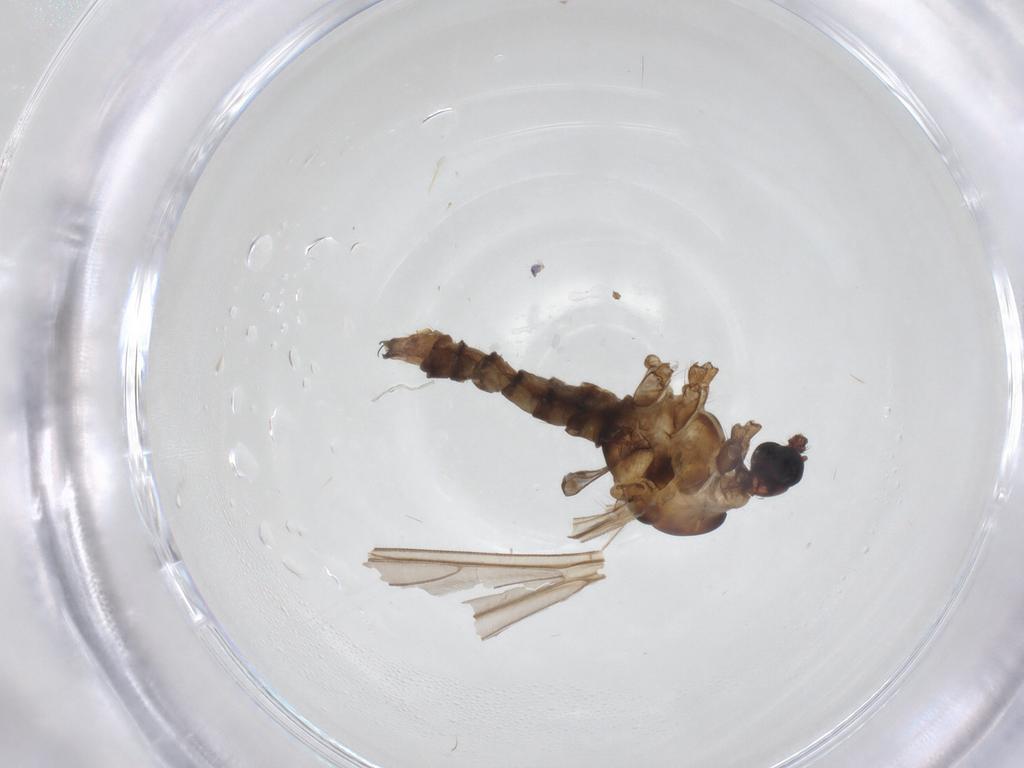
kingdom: Animalia
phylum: Arthropoda
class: Insecta
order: Diptera
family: Limoniidae
